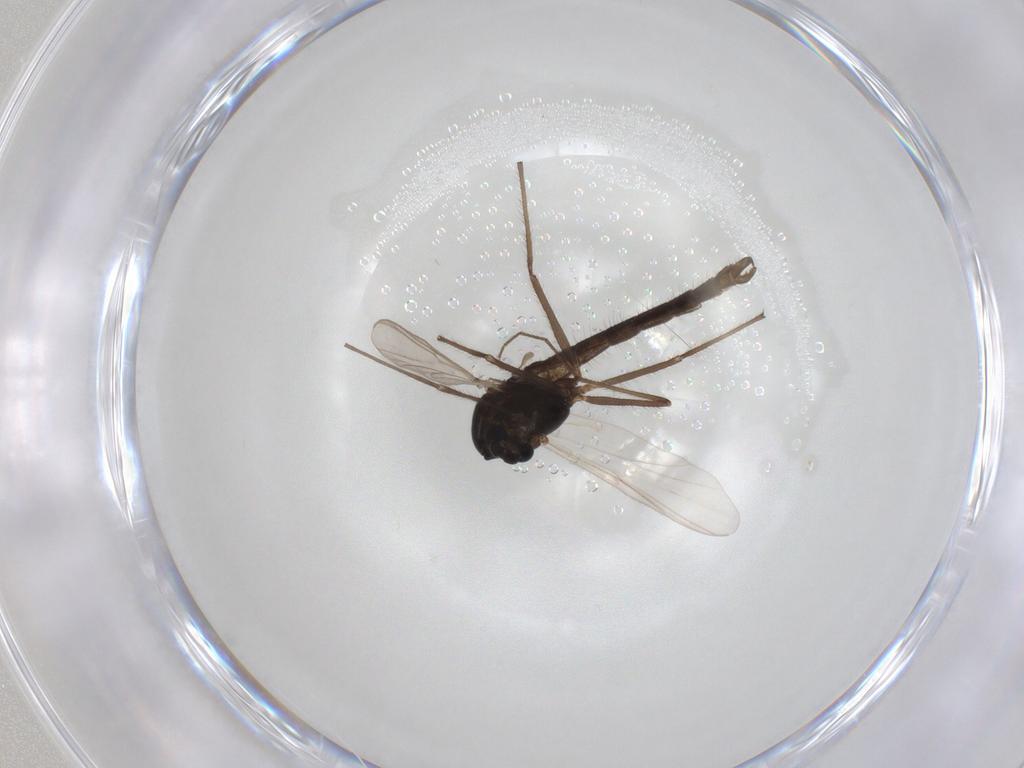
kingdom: Animalia
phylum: Arthropoda
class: Insecta
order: Diptera
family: Chironomidae
